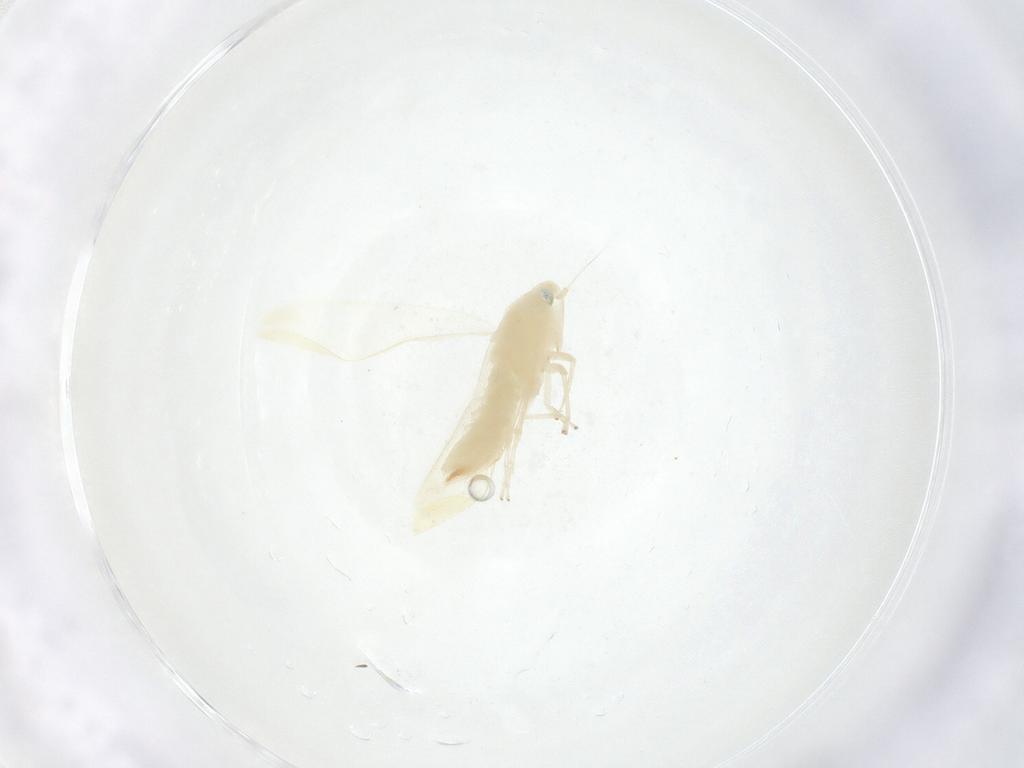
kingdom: Animalia
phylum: Arthropoda
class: Insecta
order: Hemiptera
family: Cicadellidae
